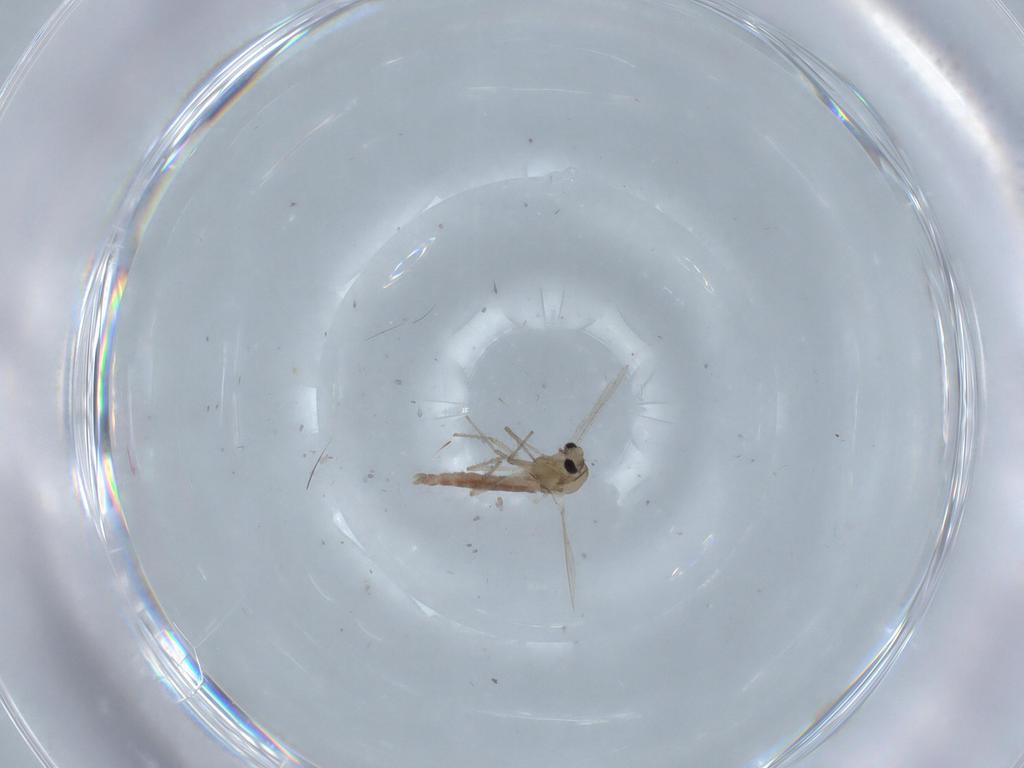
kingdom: Animalia
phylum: Arthropoda
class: Insecta
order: Diptera
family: Chironomidae
